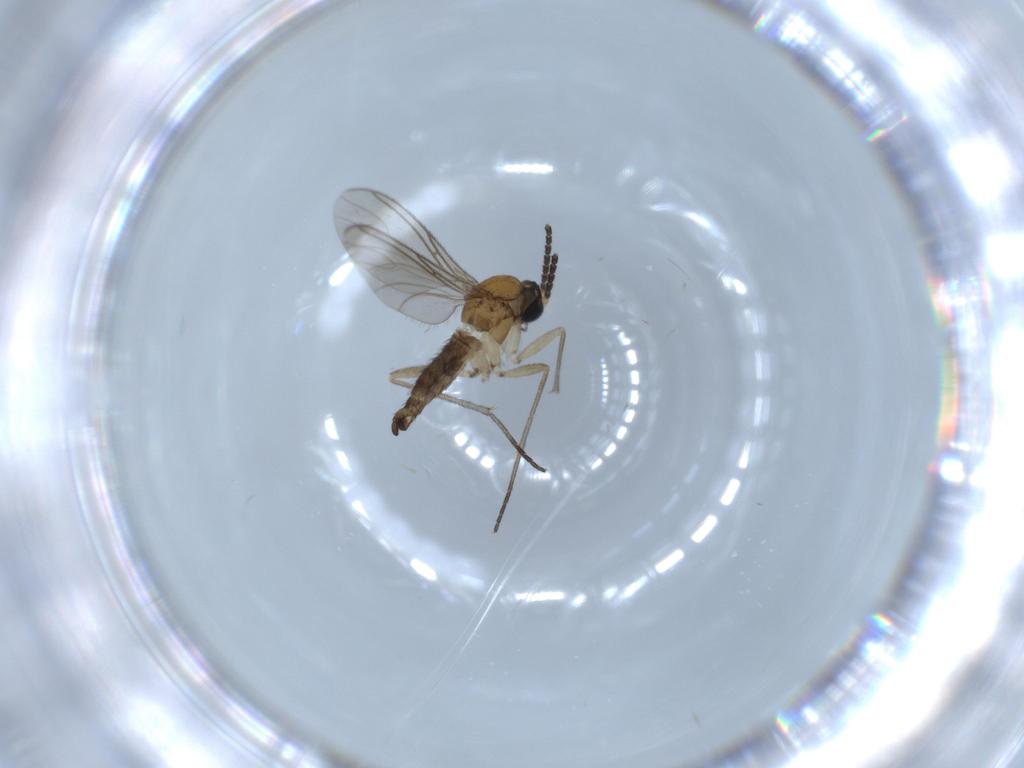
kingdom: Animalia
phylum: Arthropoda
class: Insecta
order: Diptera
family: Sciaridae
